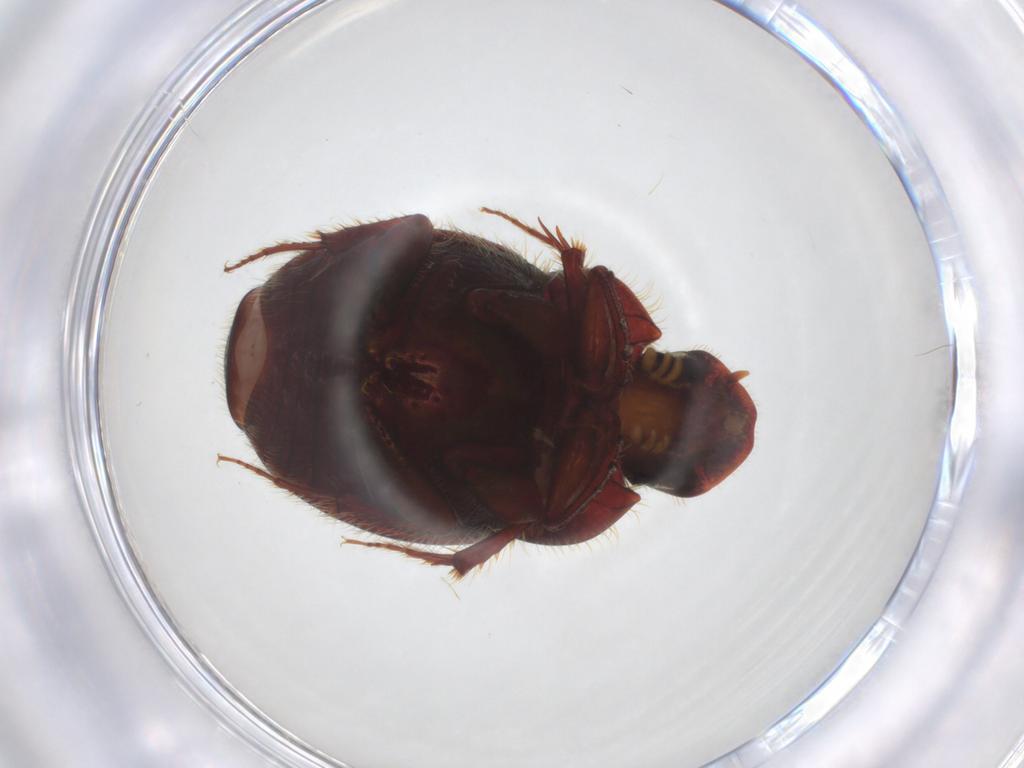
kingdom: Animalia
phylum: Arthropoda
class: Insecta
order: Coleoptera
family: Scarabaeidae
